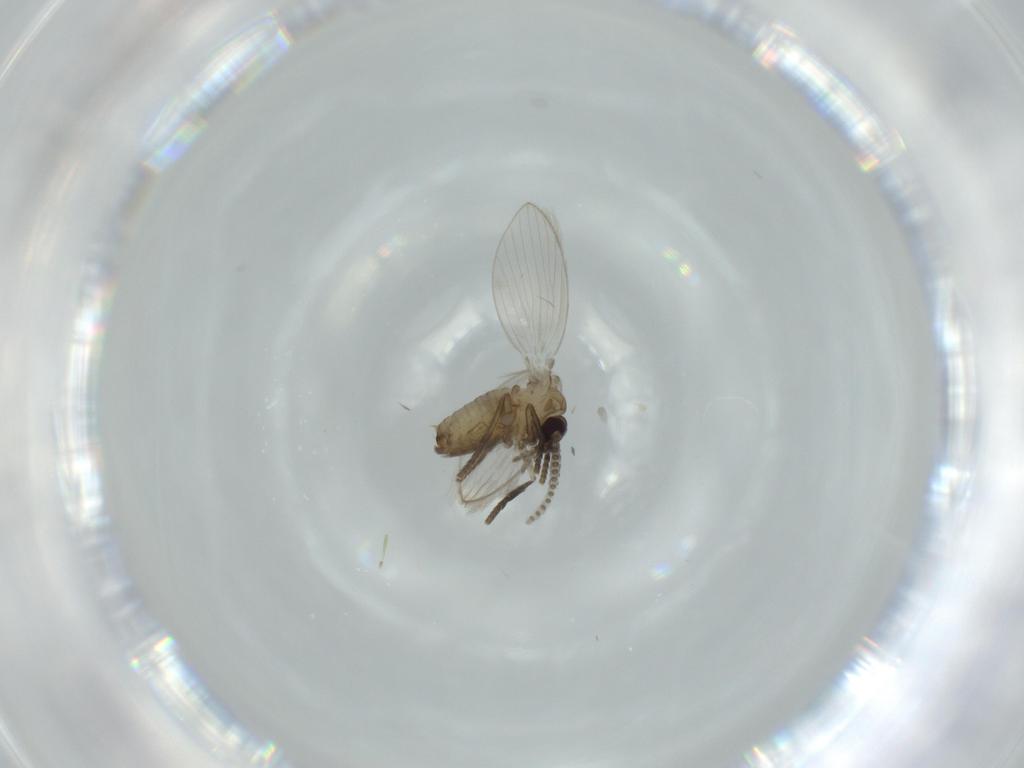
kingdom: Animalia
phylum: Arthropoda
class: Insecta
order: Diptera
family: Psychodidae
